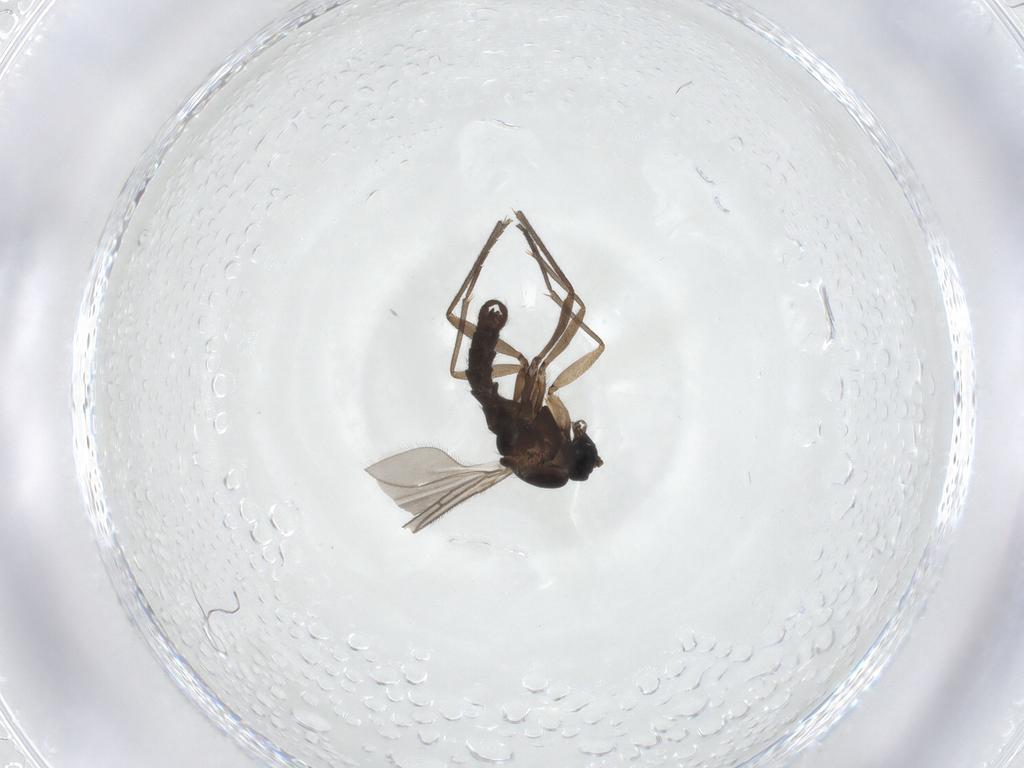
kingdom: Animalia
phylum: Arthropoda
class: Insecta
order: Diptera
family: Sciaridae
